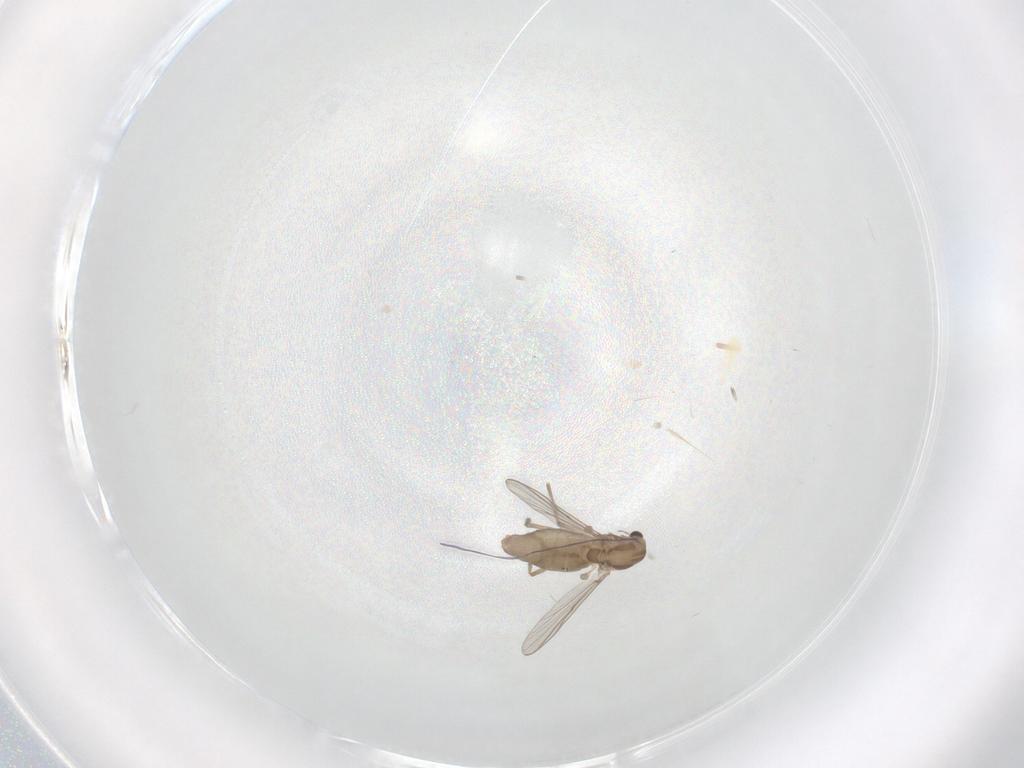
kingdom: Animalia
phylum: Arthropoda
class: Insecta
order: Diptera
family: Chironomidae
